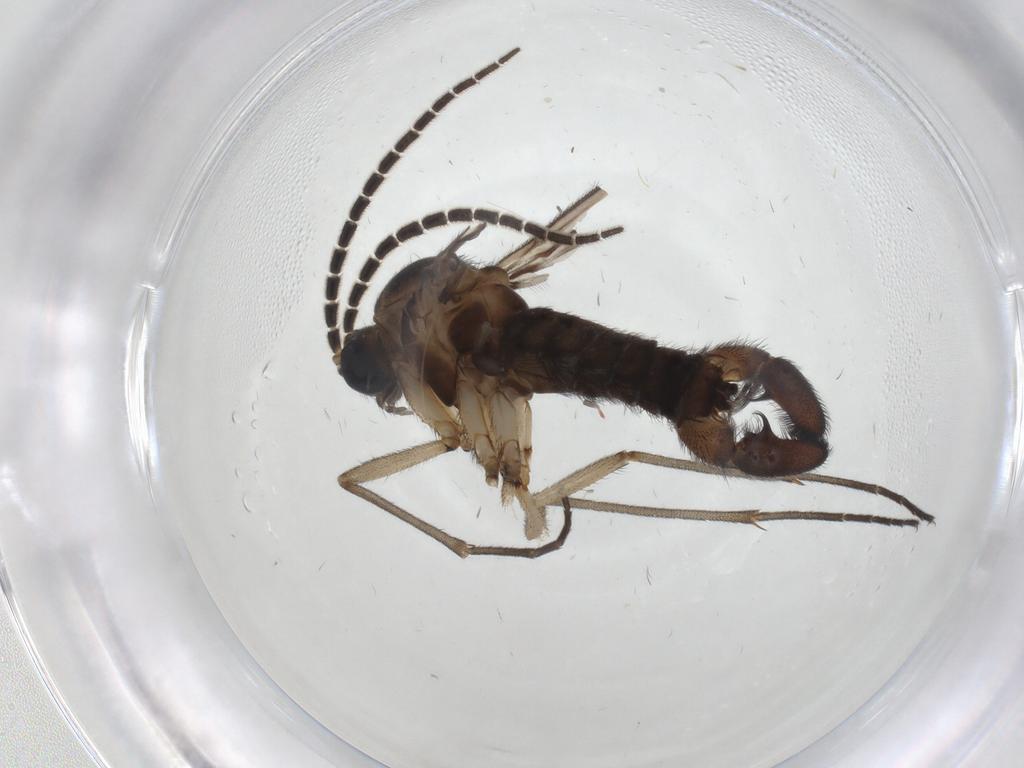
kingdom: Animalia
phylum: Arthropoda
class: Insecta
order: Diptera
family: Sciaridae
